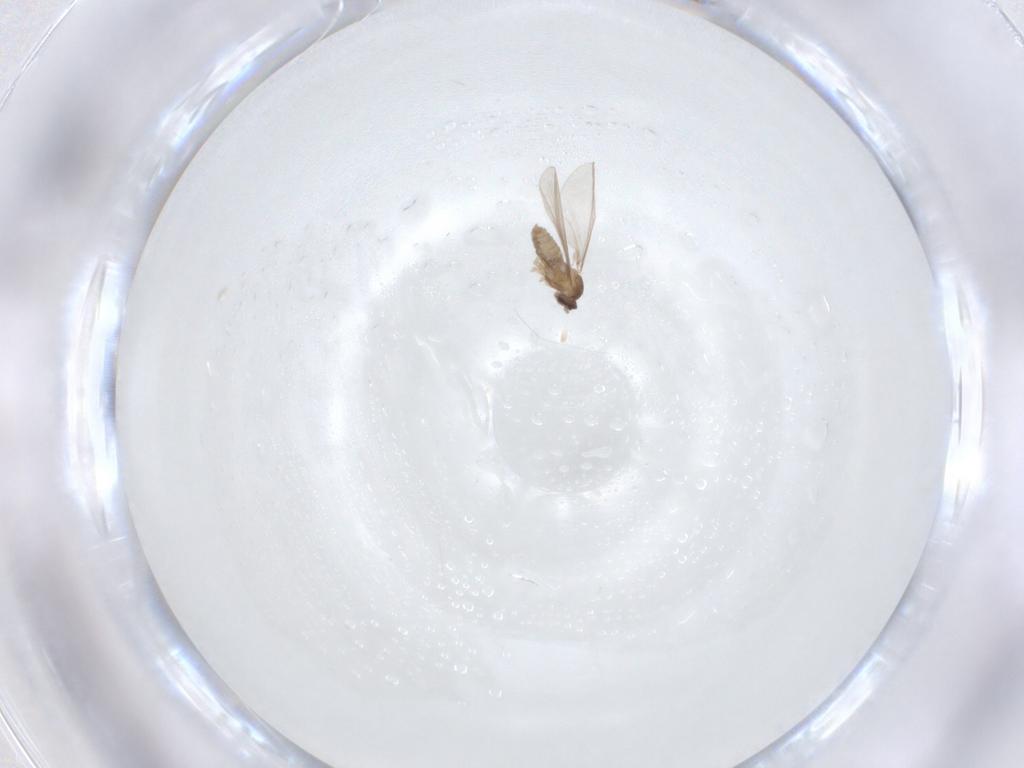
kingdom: Animalia
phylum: Arthropoda
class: Insecta
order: Diptera
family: Cecidomyiidae
